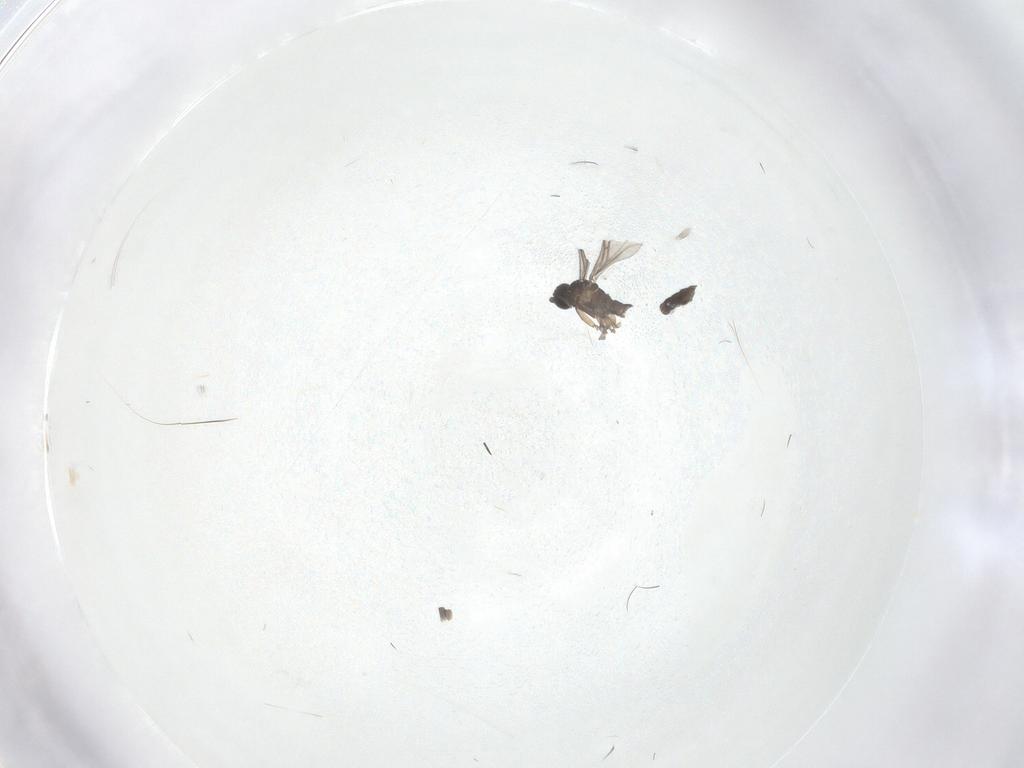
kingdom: Animalia
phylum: Arthropoda
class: Insecta
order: Diptera
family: Sciaridae
